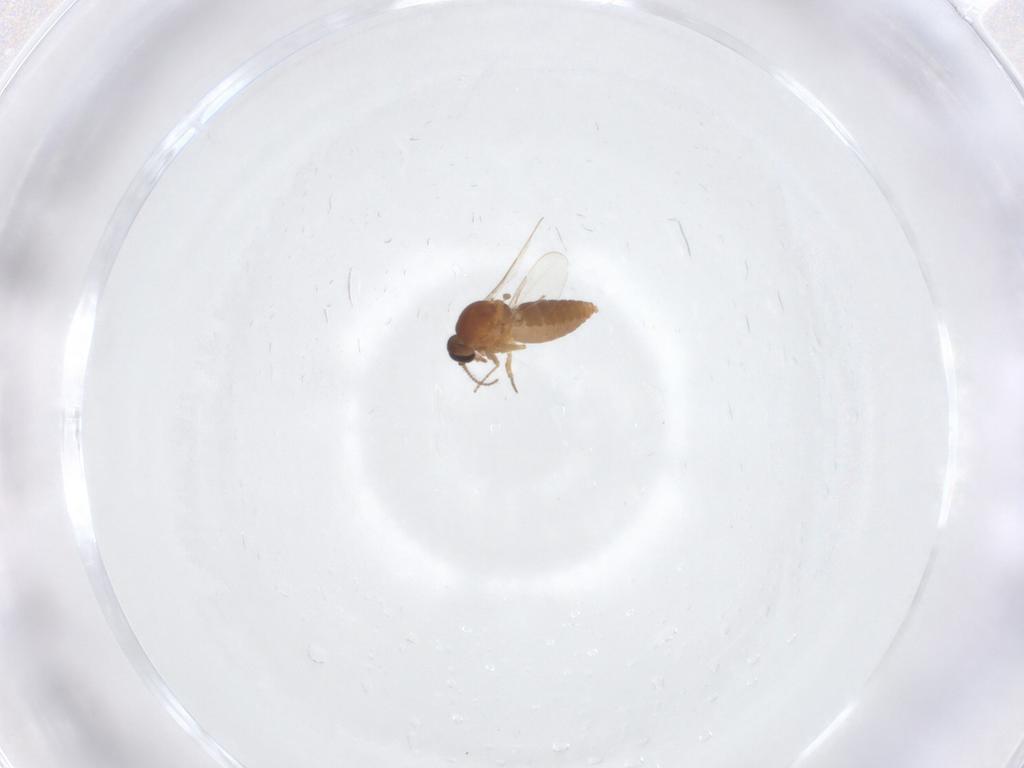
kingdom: Animalia
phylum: Arthropoda
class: Insecta
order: Diptera
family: Ceratopogonidae
